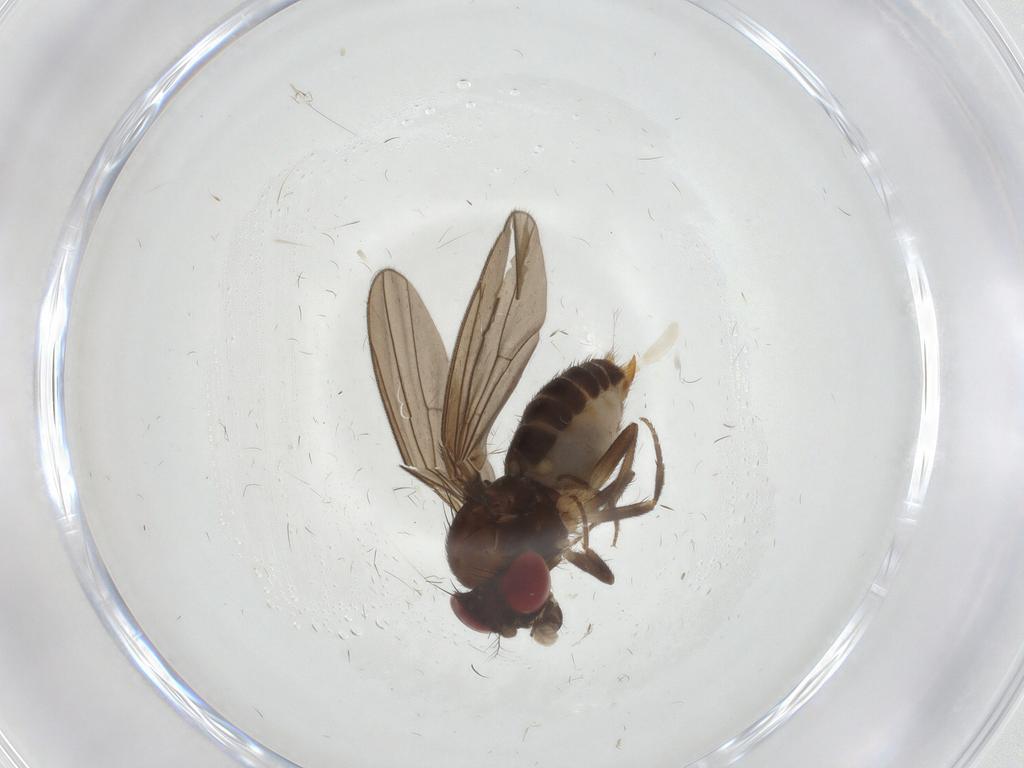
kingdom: Animalia
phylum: Arthropoda
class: Insecta
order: Diptera
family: Drosophilidae
